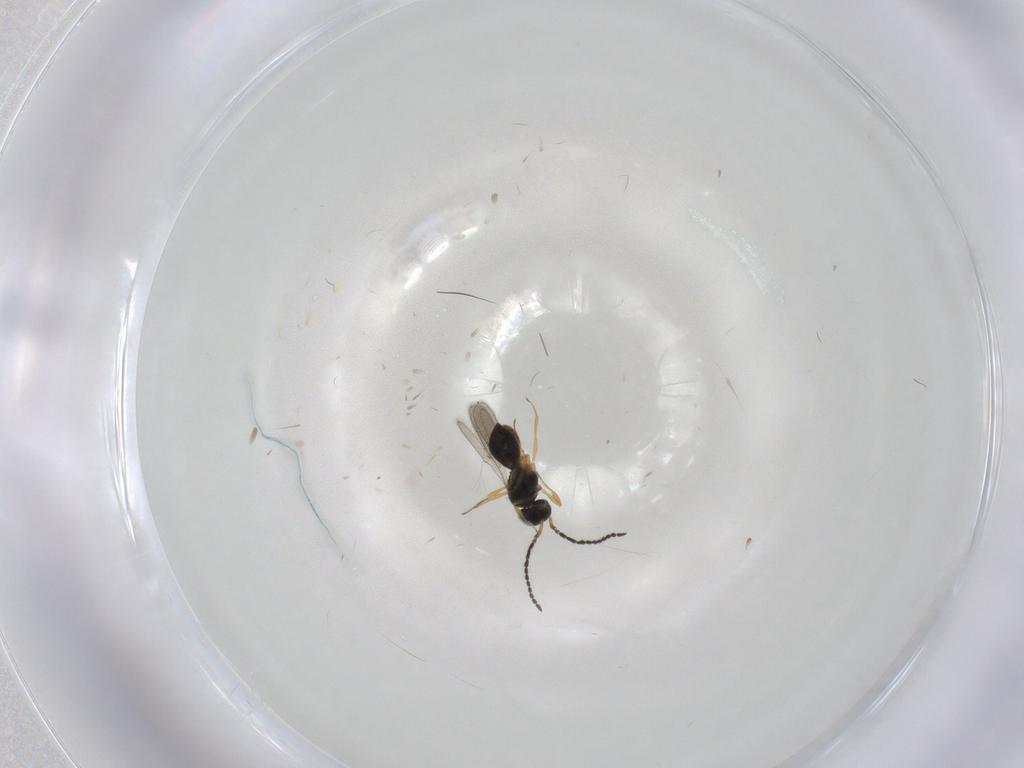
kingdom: Animalia
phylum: Arthropoda
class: Insecta
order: Hymenoptera
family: Scelionidae
